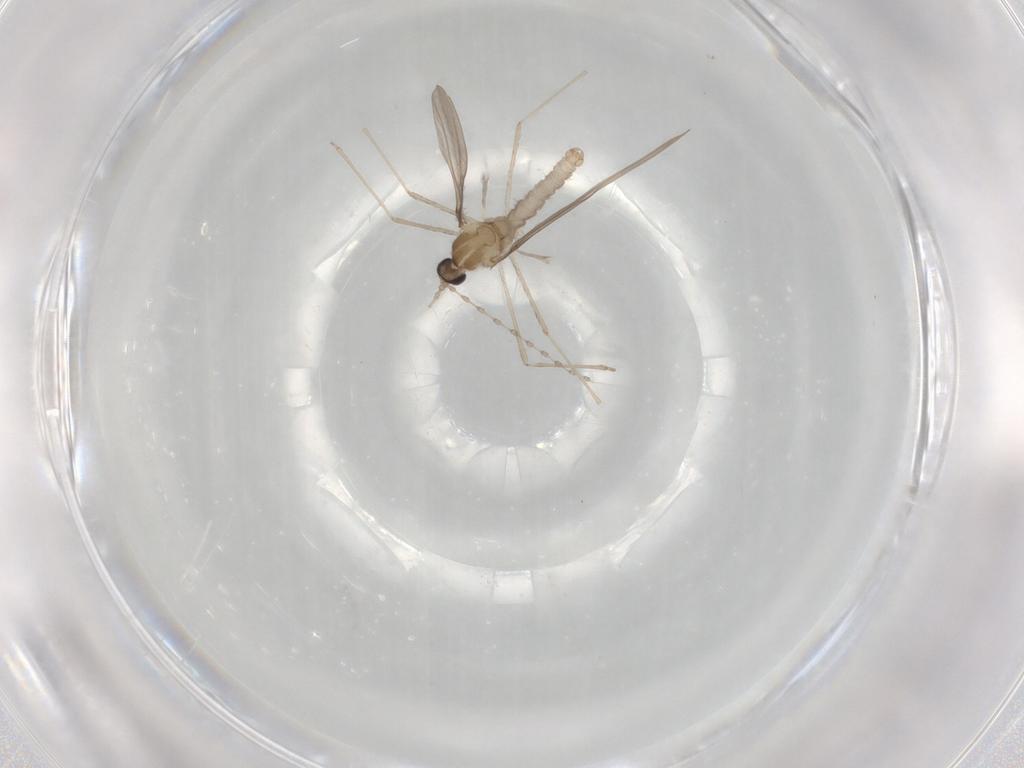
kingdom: Animalia
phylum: Arthropoda
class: Insecta
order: Diptera
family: Cecidomyiidae
